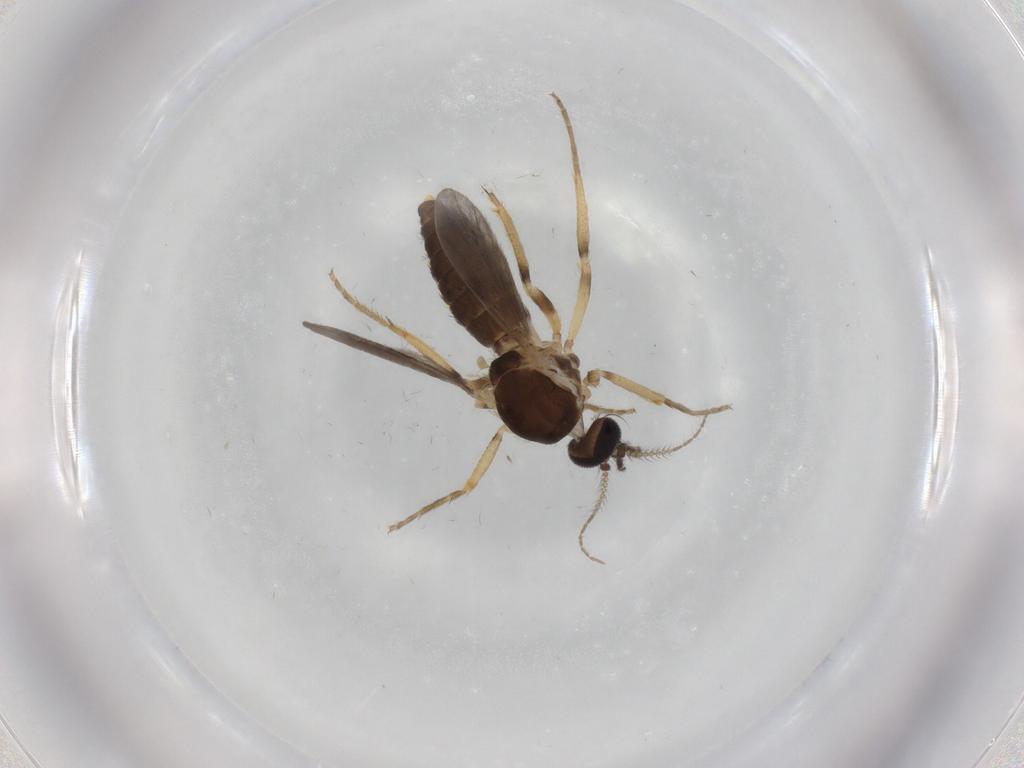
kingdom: Animalia
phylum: Arthropoda
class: Insecta
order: Diptera
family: Ceratopogonidae
